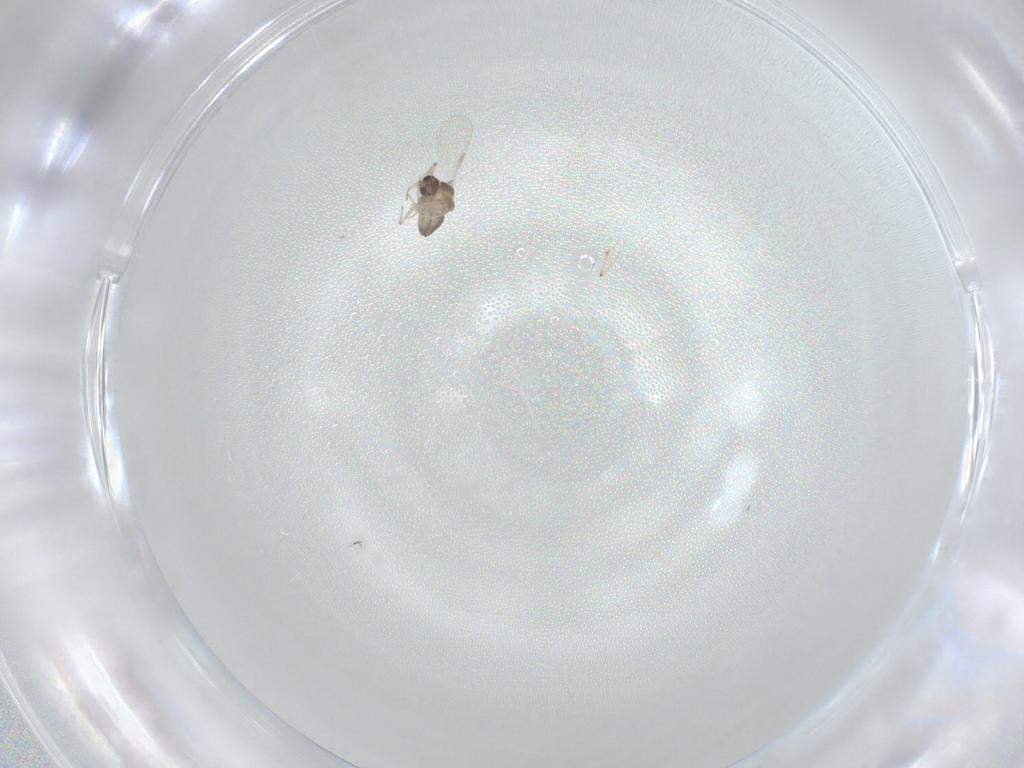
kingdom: Animalia
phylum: Arthropoda
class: Insecta
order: Diptera
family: Chironomidae
